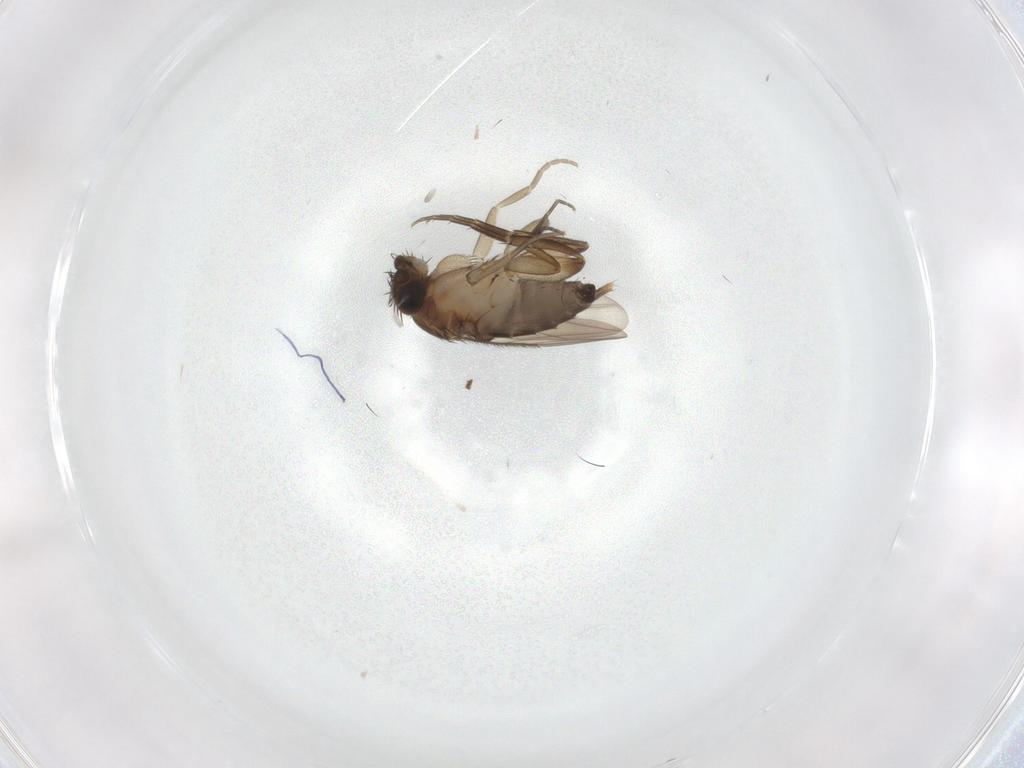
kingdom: Animalia
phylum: Arthropoda
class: Insecta
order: Diptera
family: Phoridae
